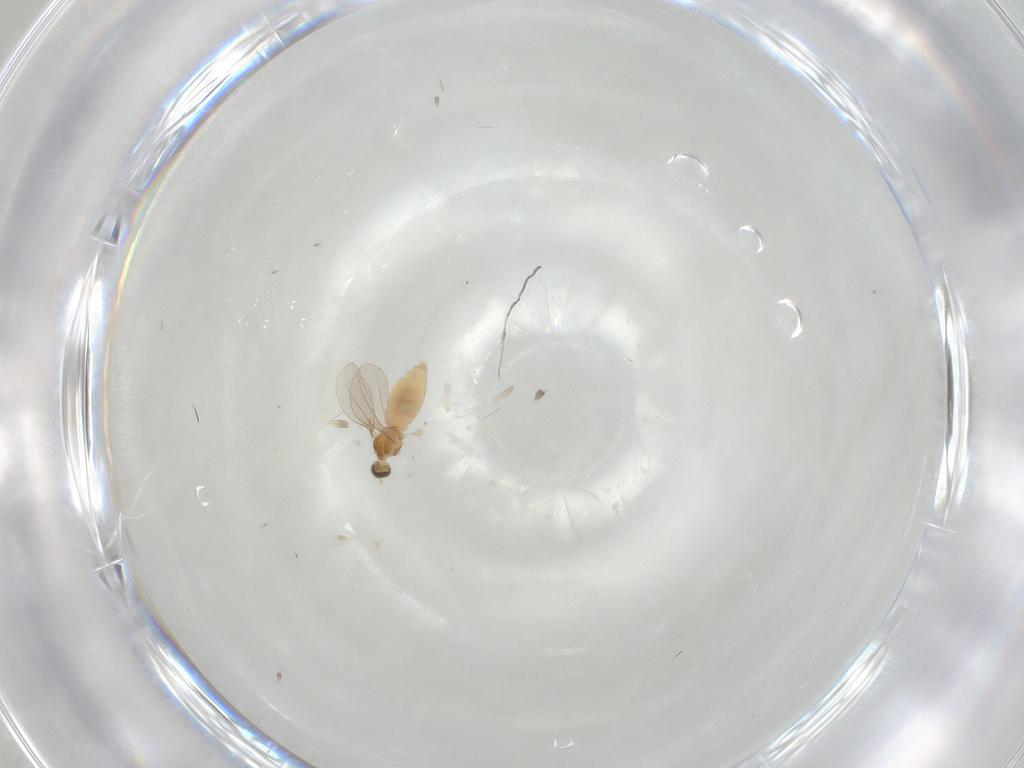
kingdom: Animalia
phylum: Arthropoda
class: Insecta
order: Diptera
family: Cecidomyiidae
